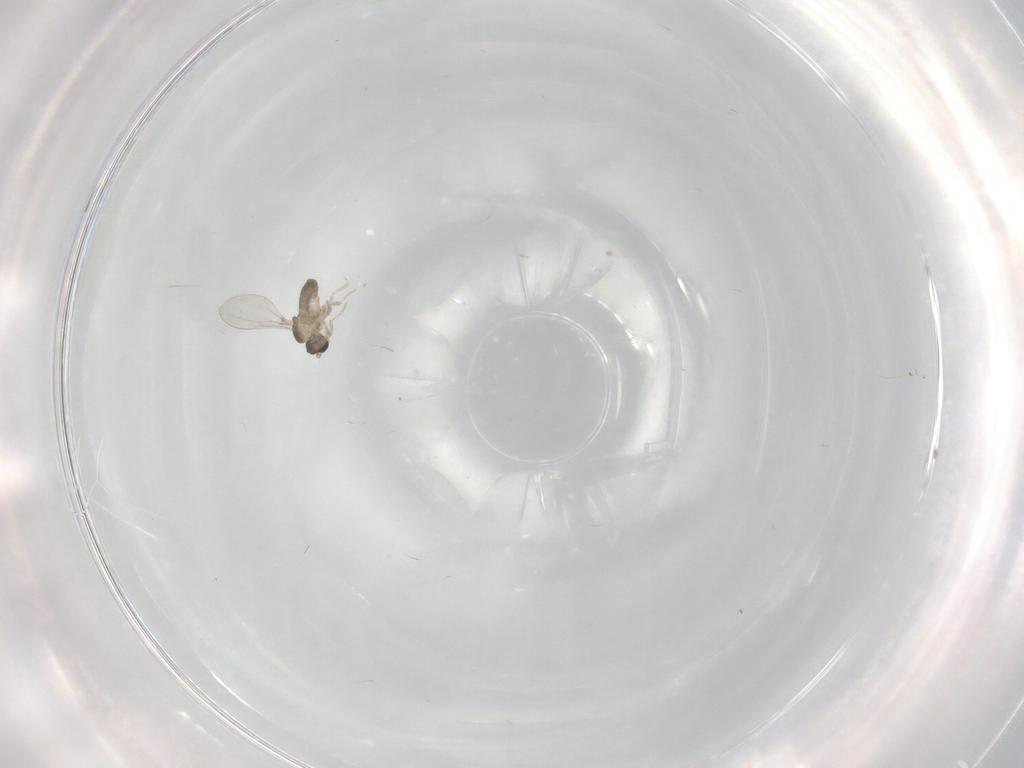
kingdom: Animalia
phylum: Arthropoda
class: Insecta
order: Diptera
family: Cecidomyiidae
